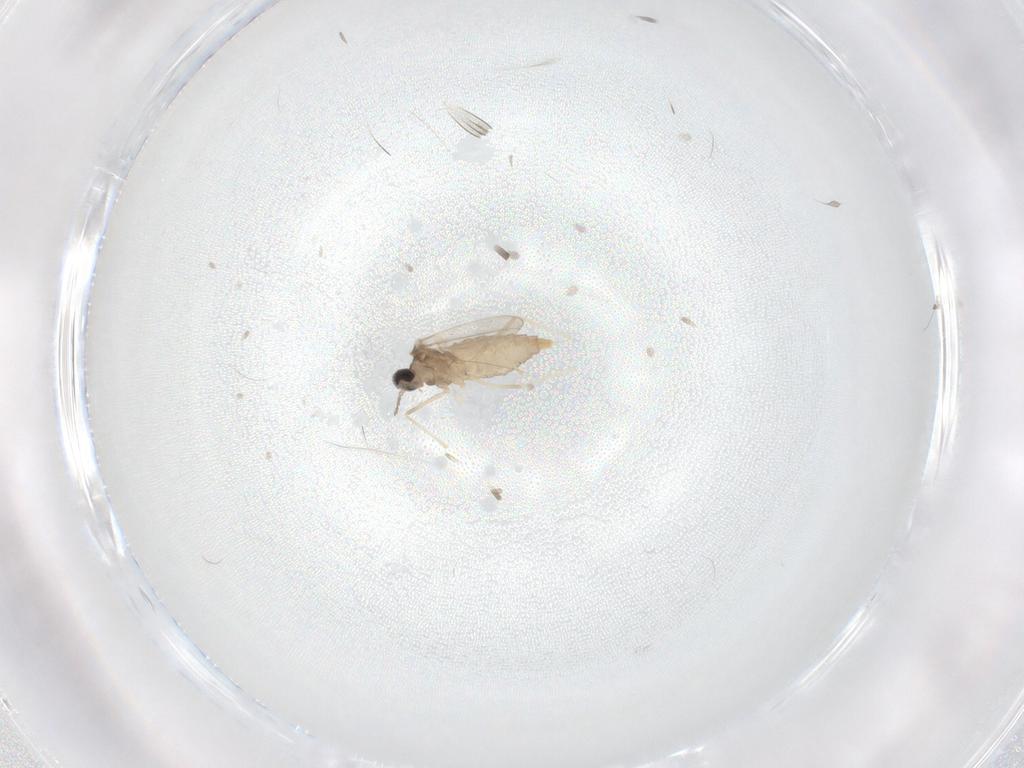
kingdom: Animalia
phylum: Arthropoda
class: Insecta
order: Diptera
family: Cecidomyiidae
